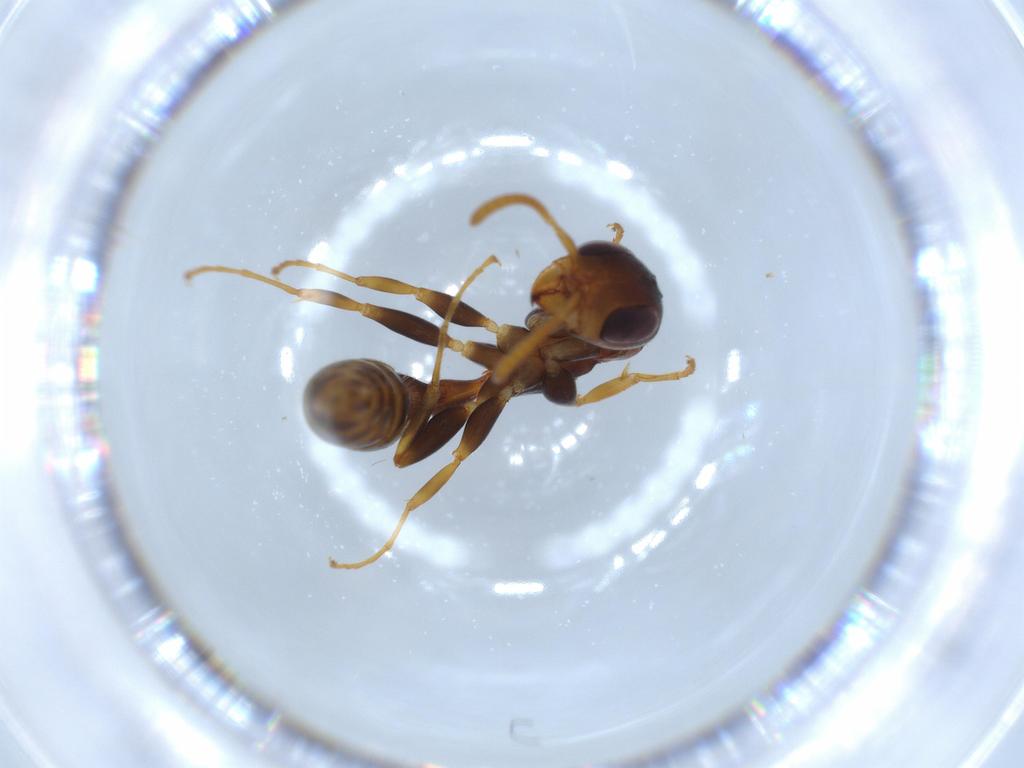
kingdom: Animalia
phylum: Arthropoda
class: Insecta
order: Hymenoptera
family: Formicidae
